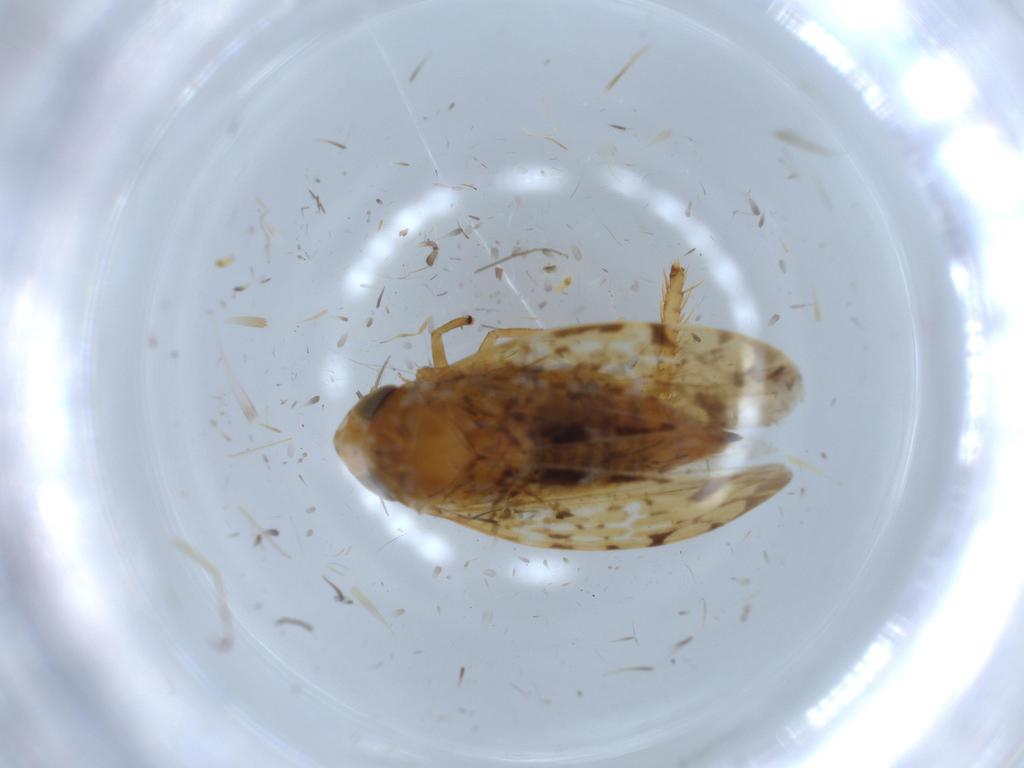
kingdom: Animalia
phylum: Arthropoda
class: Insecta
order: Hemiptera
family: Cicadellidae
